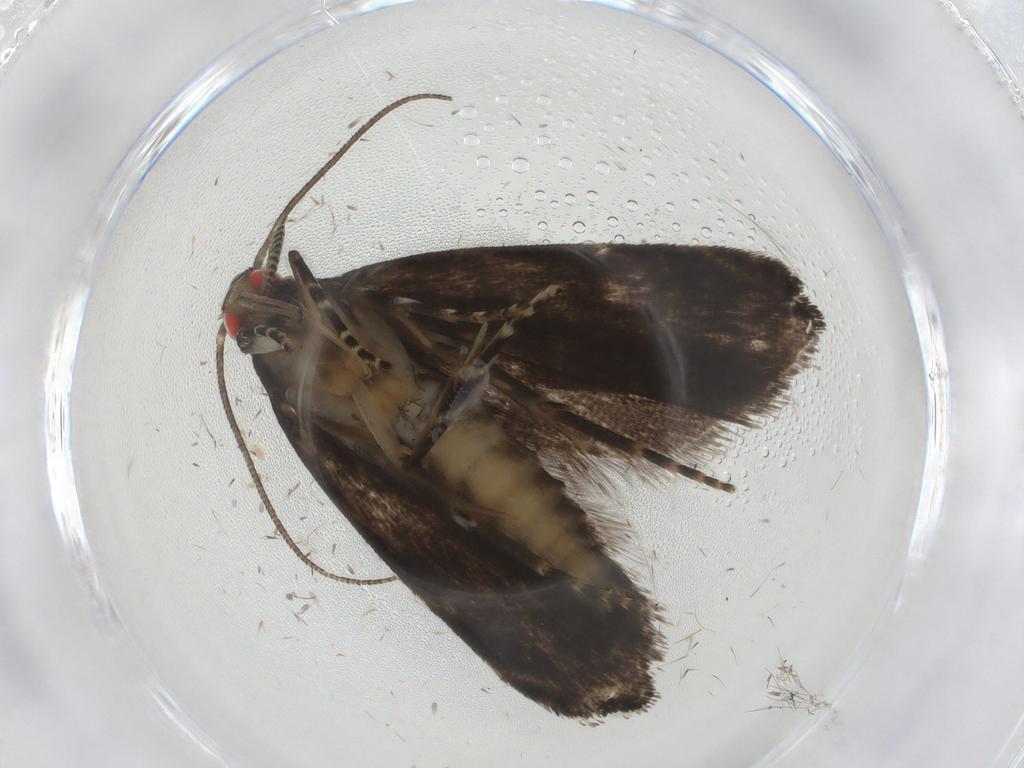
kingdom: Animalia
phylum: Arthropoda
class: Insecta
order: Lepidoptera
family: Gelechiidae
